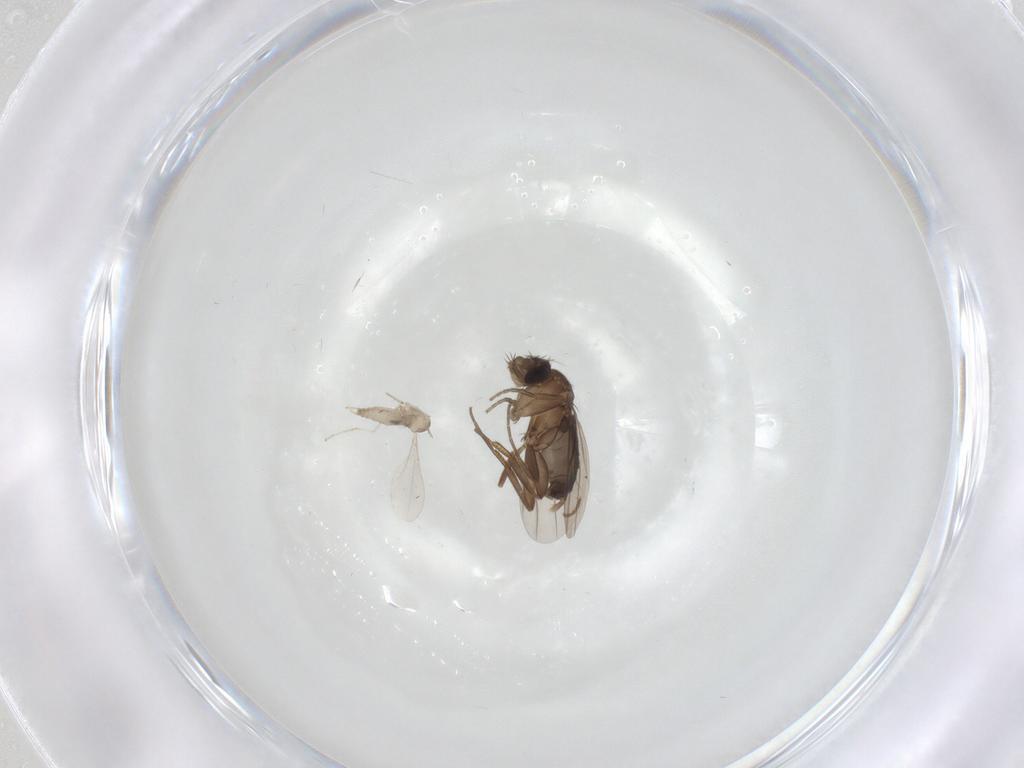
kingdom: Animalia
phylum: Arthropoda
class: Insecta
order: Diptera
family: Cecidomyiidae
